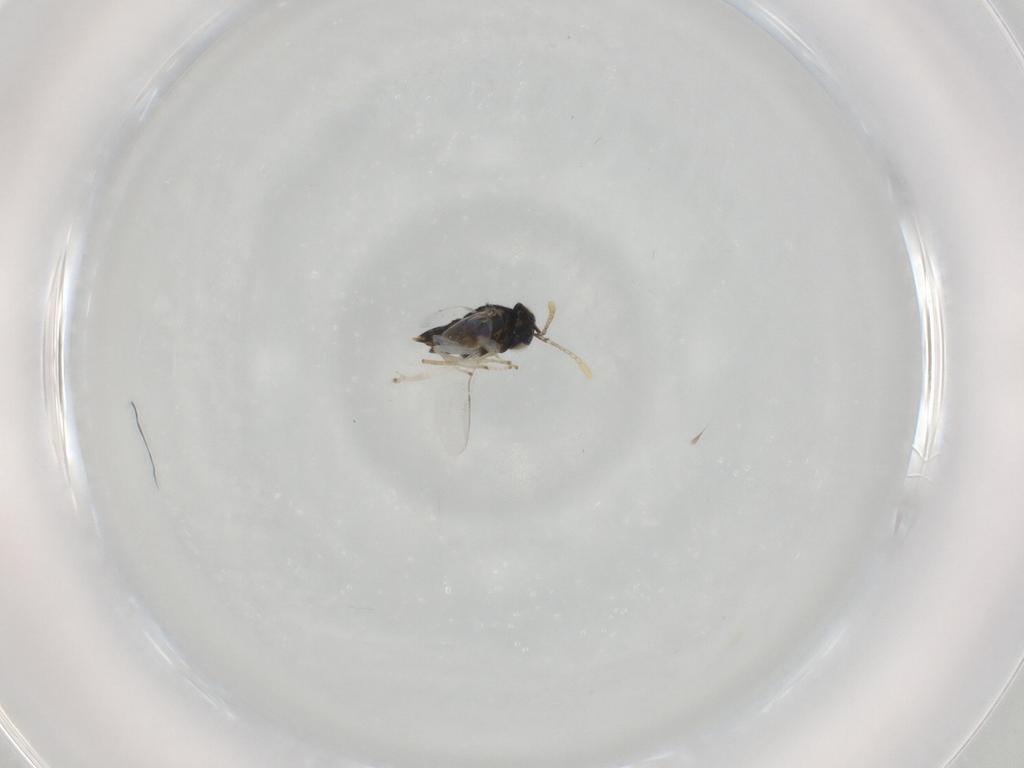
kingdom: Animalia
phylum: Arthropoda
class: Insecta
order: Hymenoptera
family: Encyrtidae
